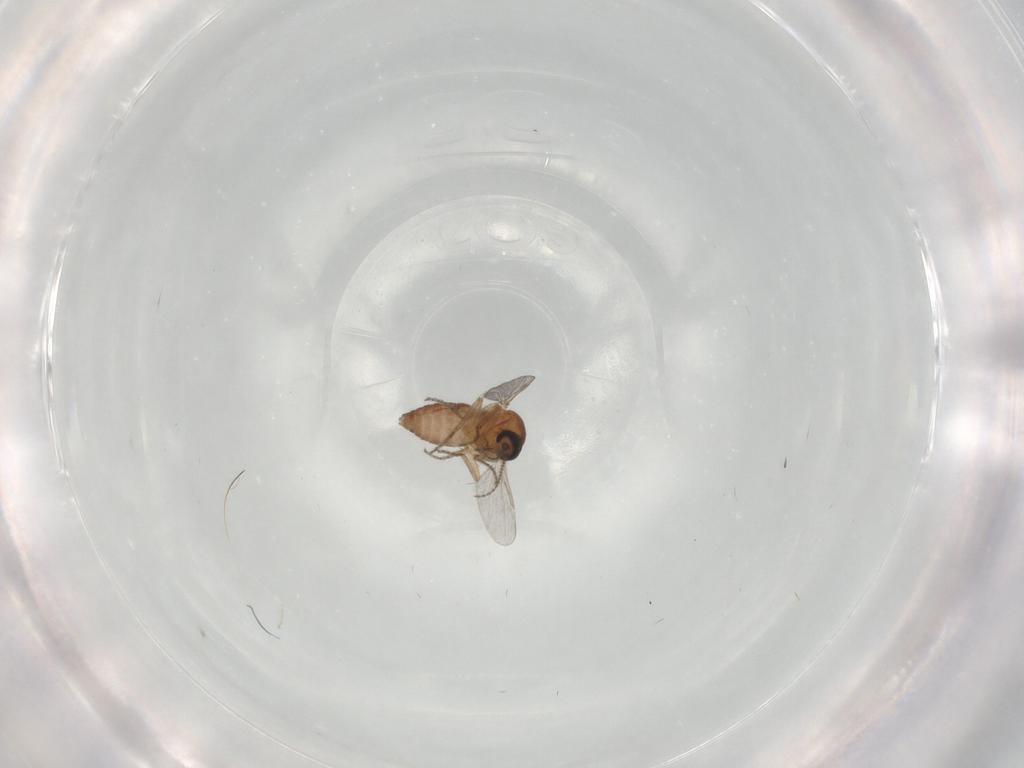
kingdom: Animalia
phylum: Arthropoda
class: Insecta
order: Diptera
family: Ceratopogonidae
